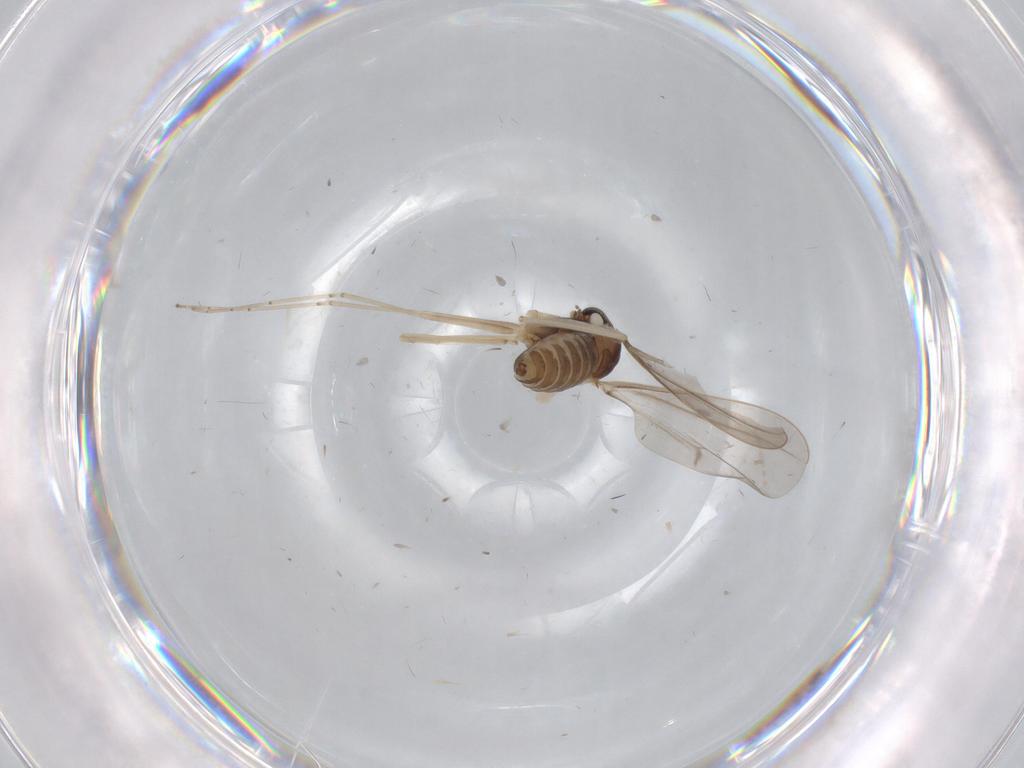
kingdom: Animalia
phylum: Arthropoda
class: Insecta
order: Diptera
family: Cecidomyiidae
